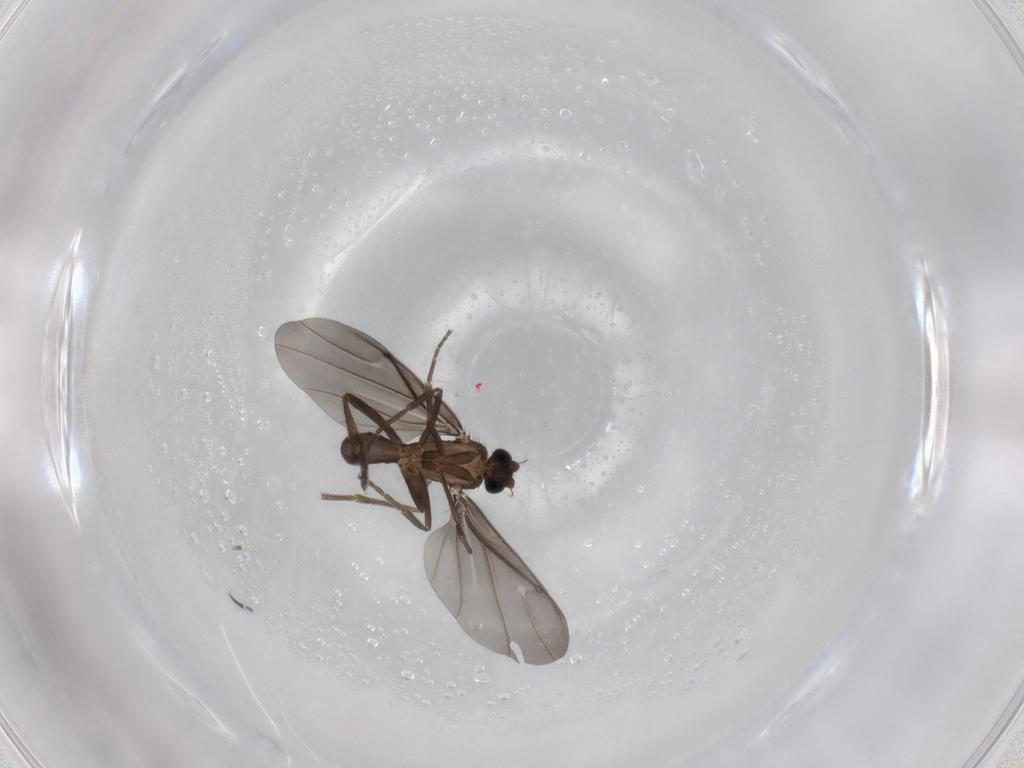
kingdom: Animalia
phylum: Arthropoda
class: Insecta
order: Diptera
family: Phoridae
